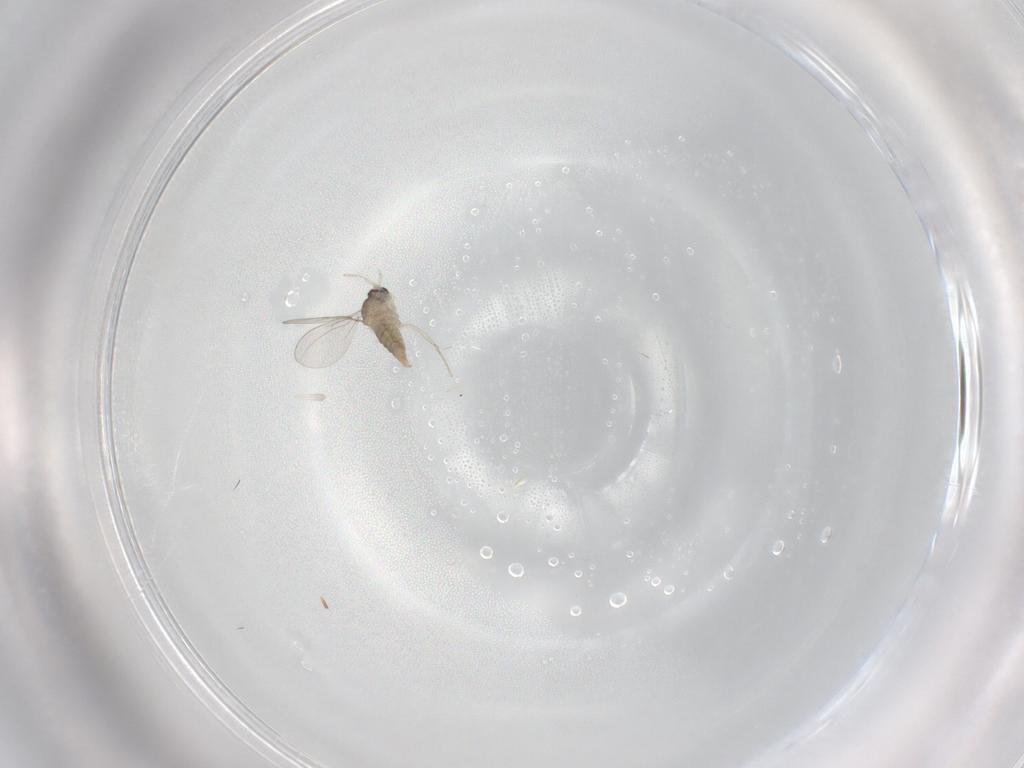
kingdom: Animalia
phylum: Arthropoda
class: Insecta
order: Diptera
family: Cecidomyiidae
